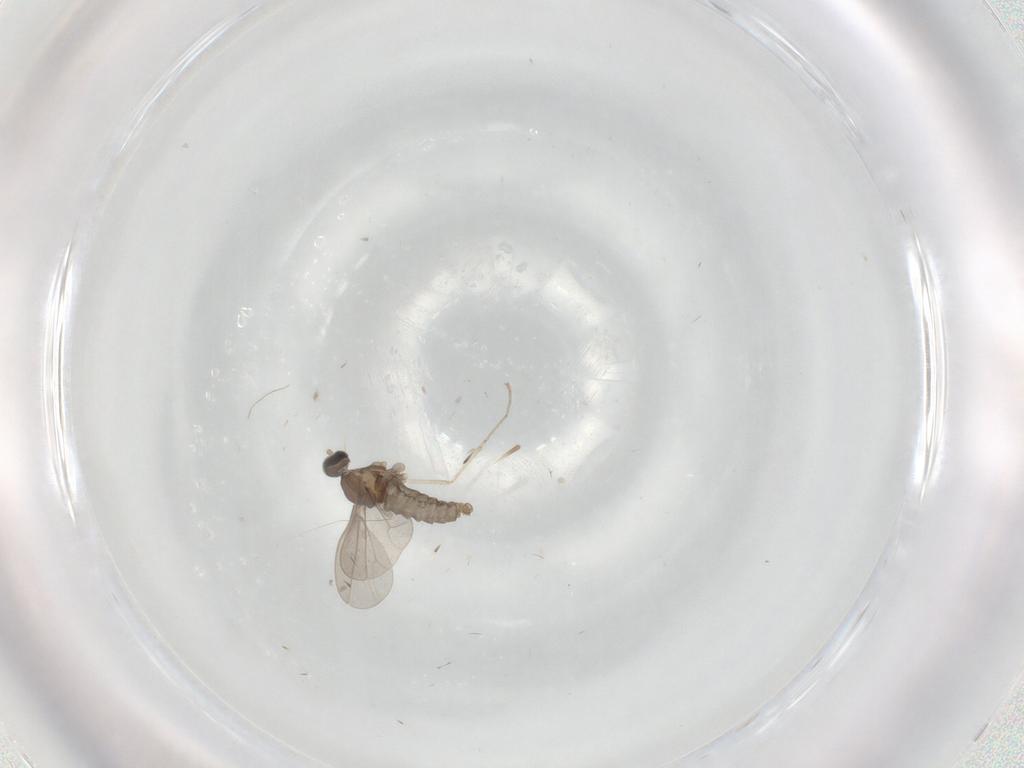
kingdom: Animalia
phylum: Arthropoda
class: Insecta
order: Diptera
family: Cecidomyiidae
